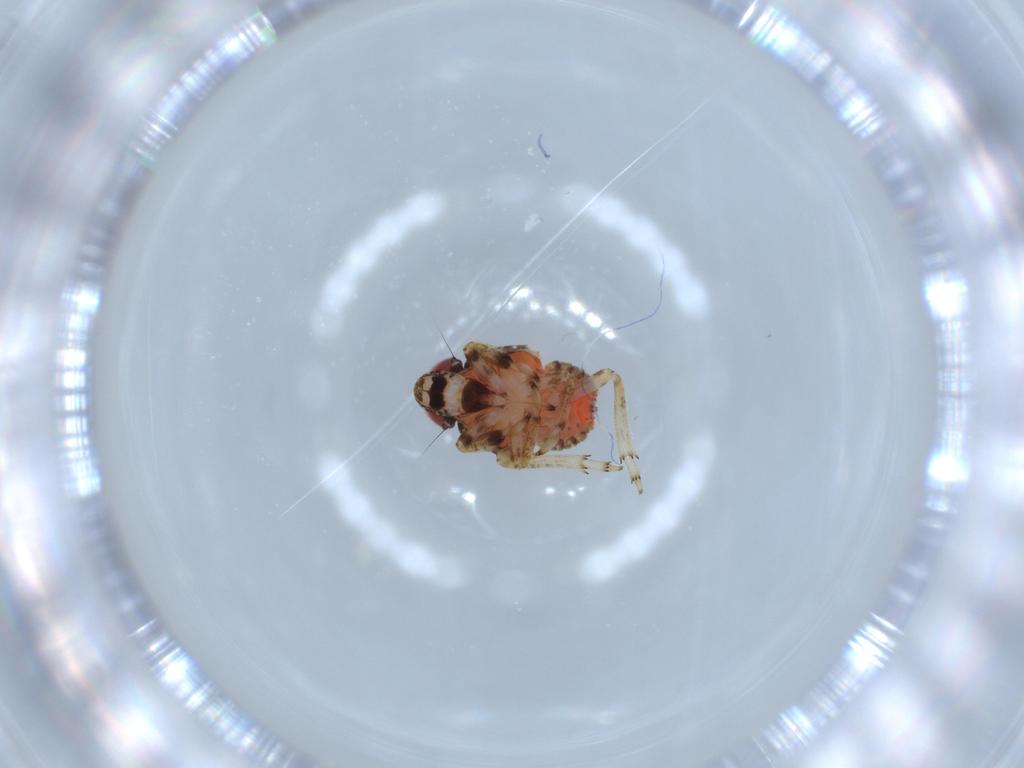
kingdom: Animalia
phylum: Arthropoda
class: Insecta
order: Hemiptera
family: Issidae
